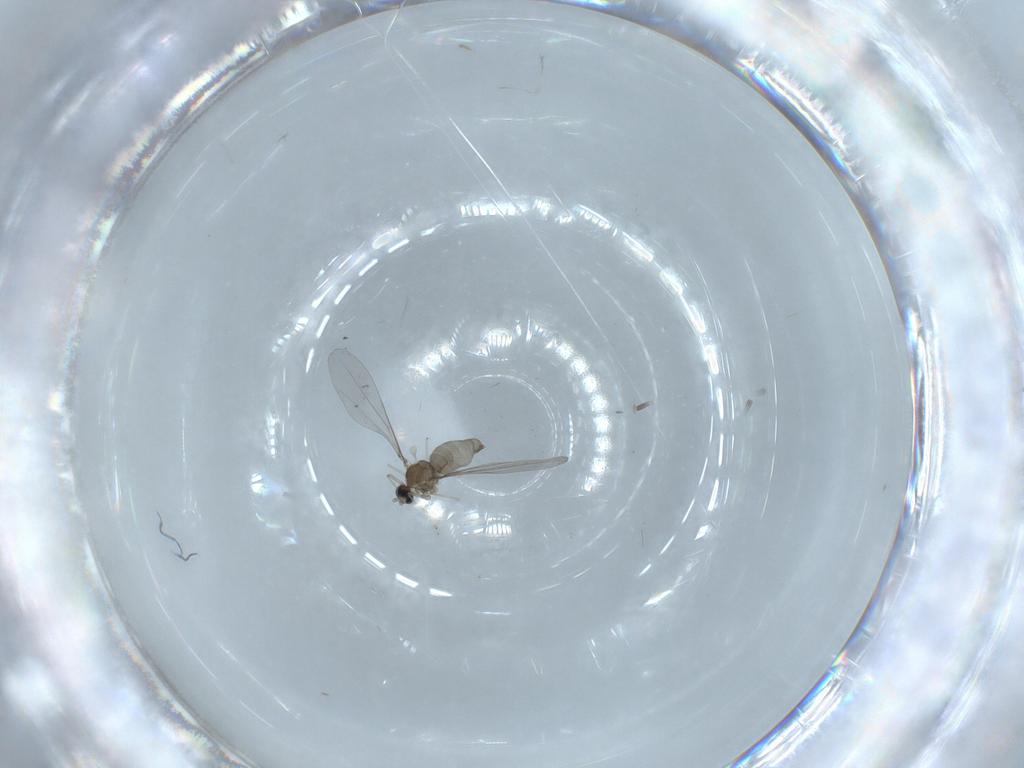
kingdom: Animalia
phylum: Arthropoda
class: Insecta
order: Diptera
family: Cecidomyiidae
